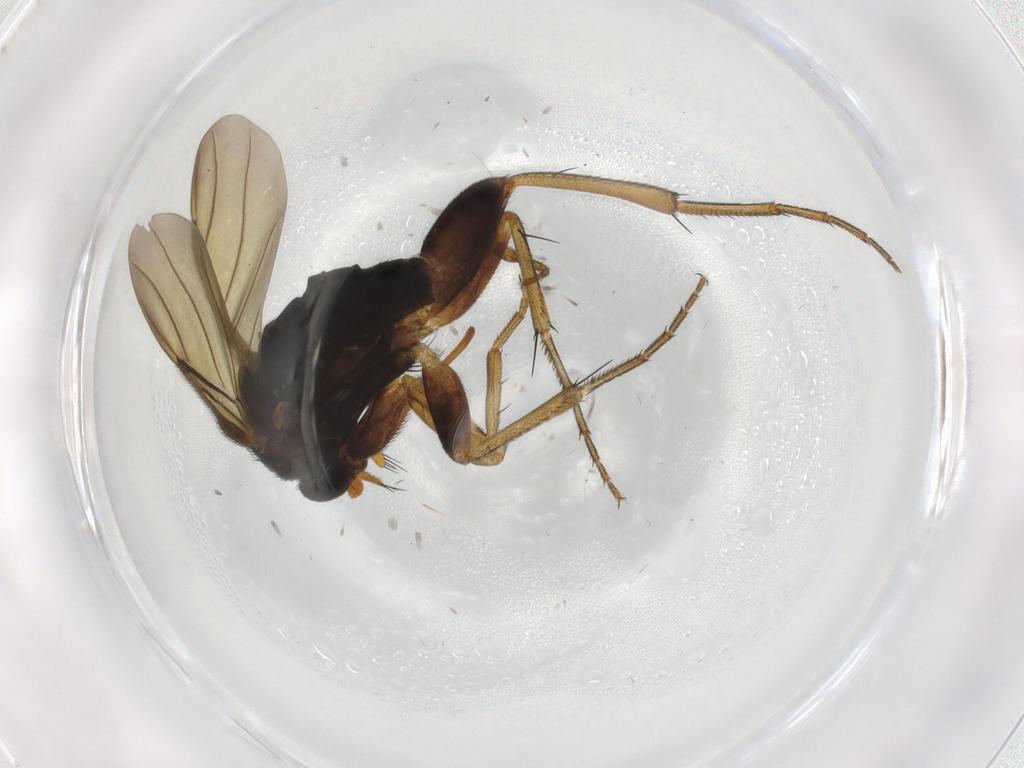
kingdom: Animalia
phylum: Arthropoda
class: Insecta
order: Diptera
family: Phoridae
